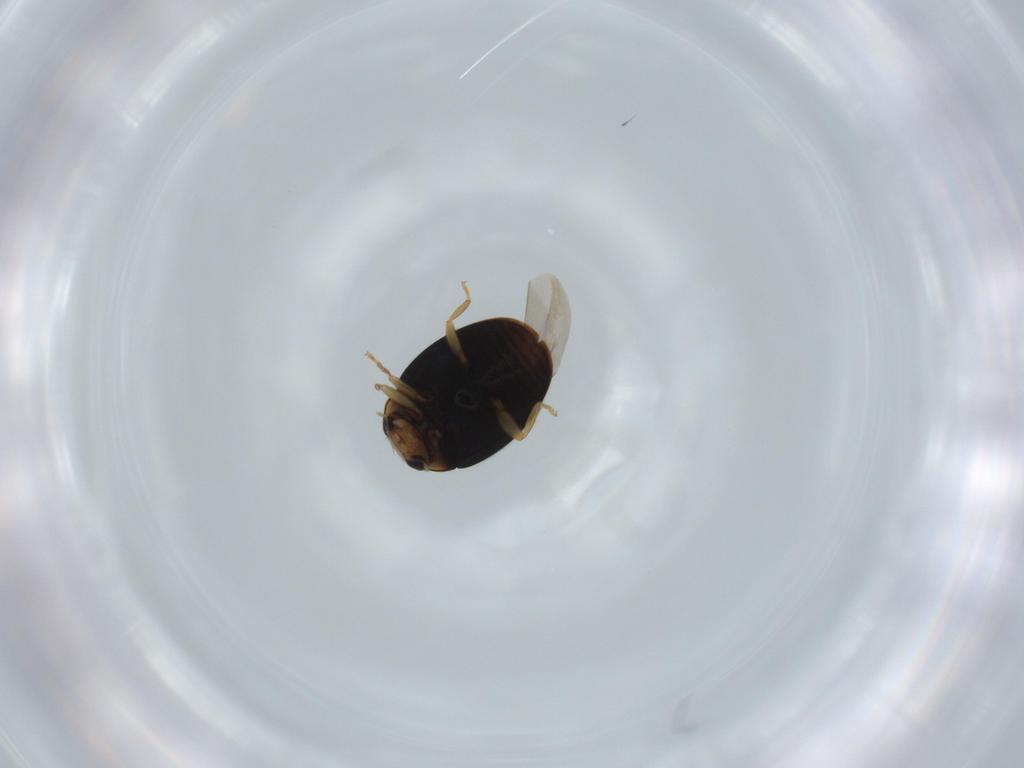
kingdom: Animalia
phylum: Arthropoda
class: Insecta
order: Coleoptera
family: Coccinellidae
